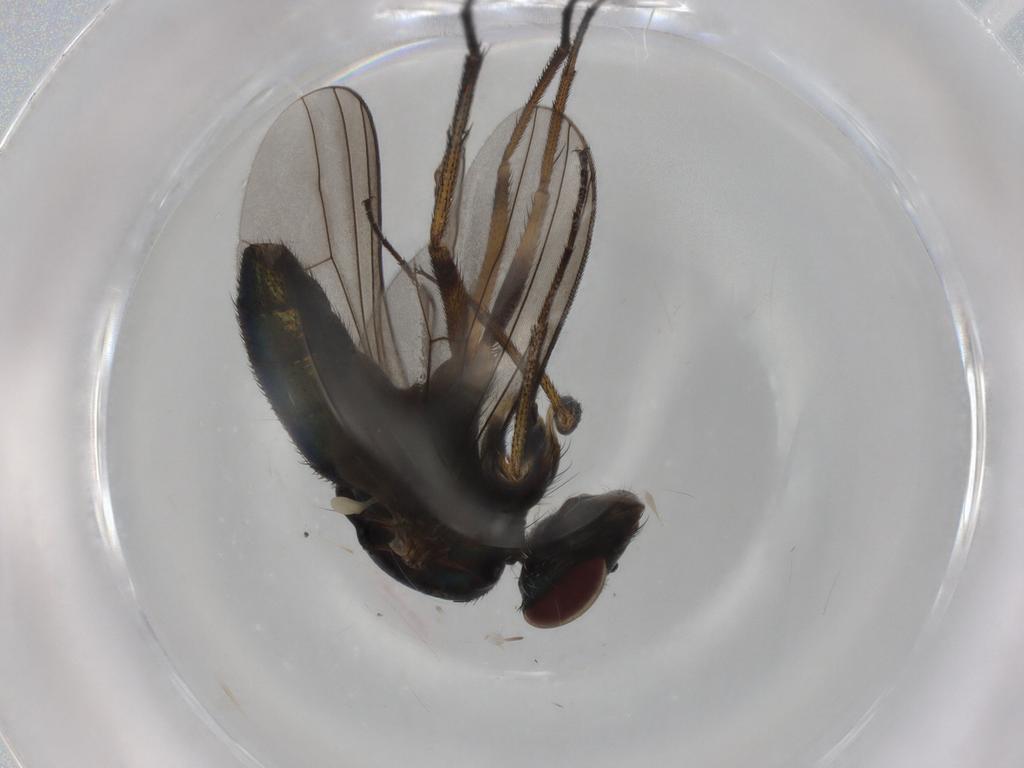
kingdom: Animalia
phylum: Arthropoda
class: Insecta
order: Diptera
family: Dolichopodidae
